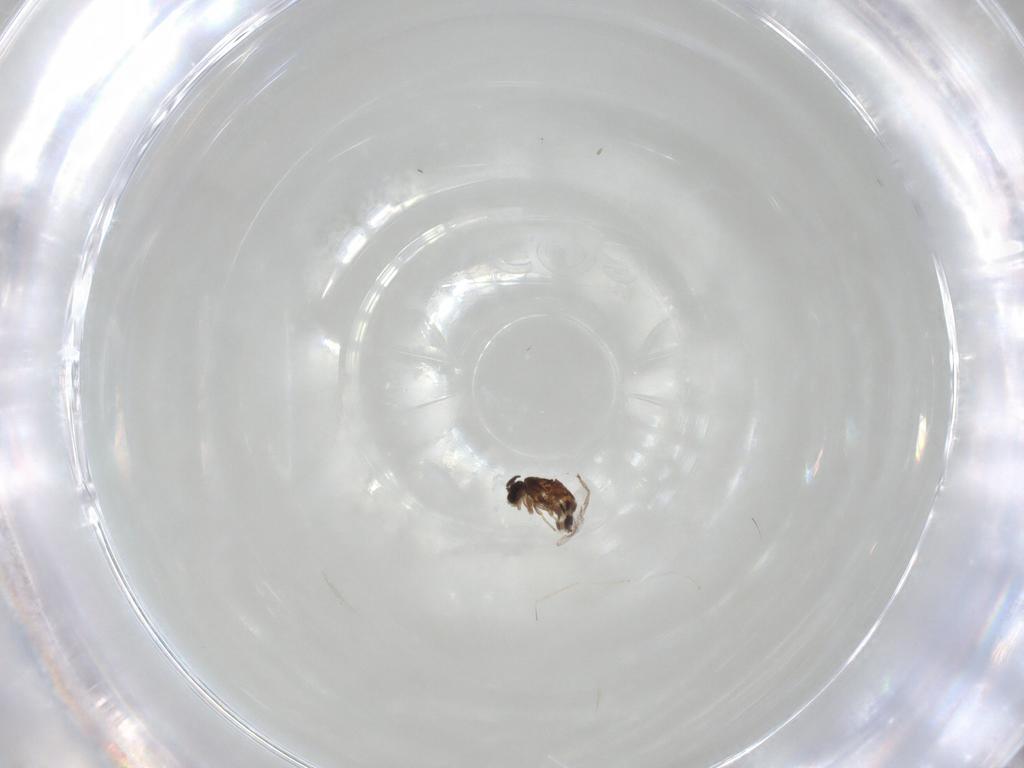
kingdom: Animalia
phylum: Arthropoda
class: Insecta
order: Diptera
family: Scatopsidae
